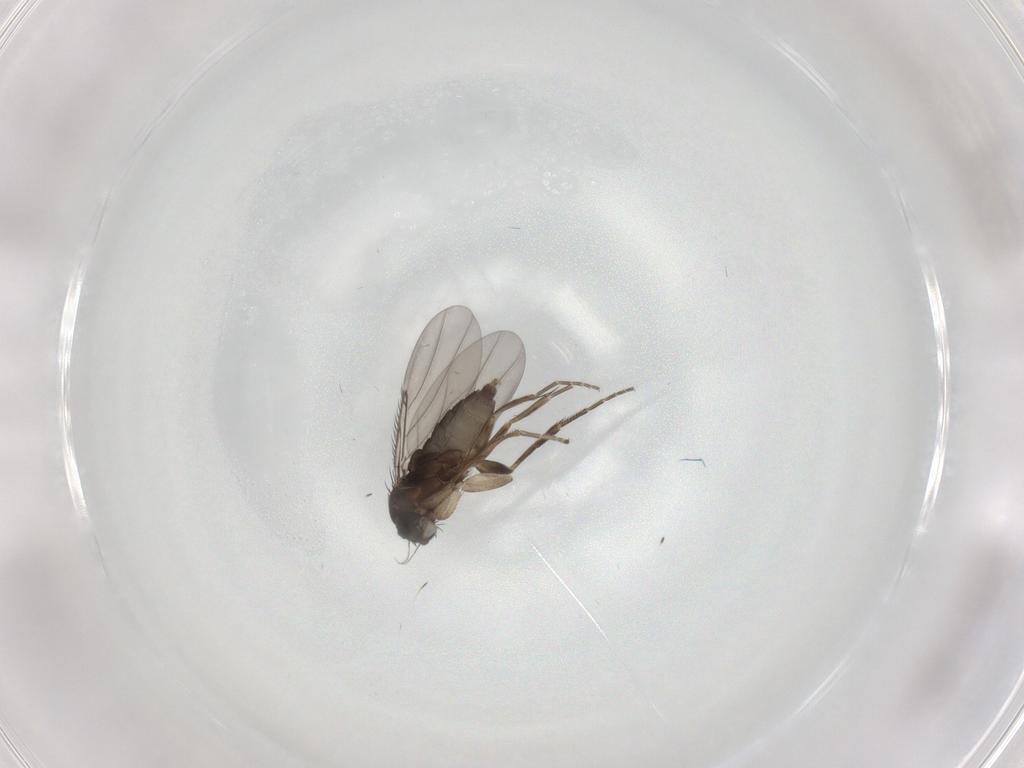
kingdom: Animalia
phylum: Arthropoda
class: Insecta
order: Diptera
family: Phoridae
